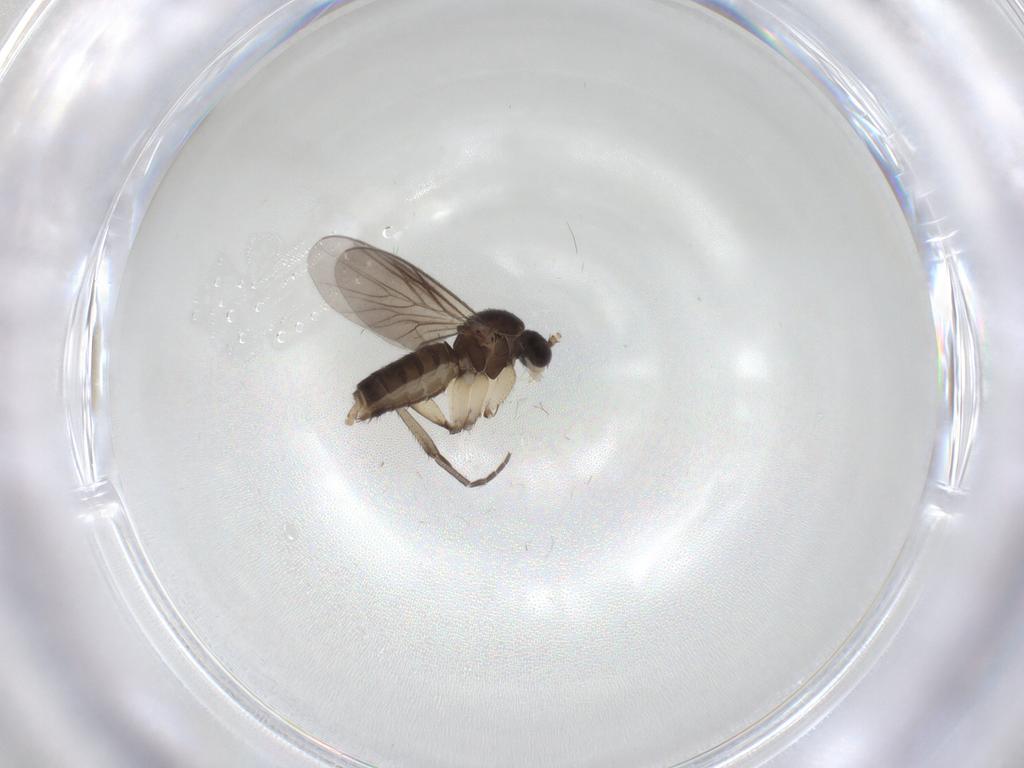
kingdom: Animalia
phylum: Arthropoda
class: Insecta
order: Diptera
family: Mycetophilidae
